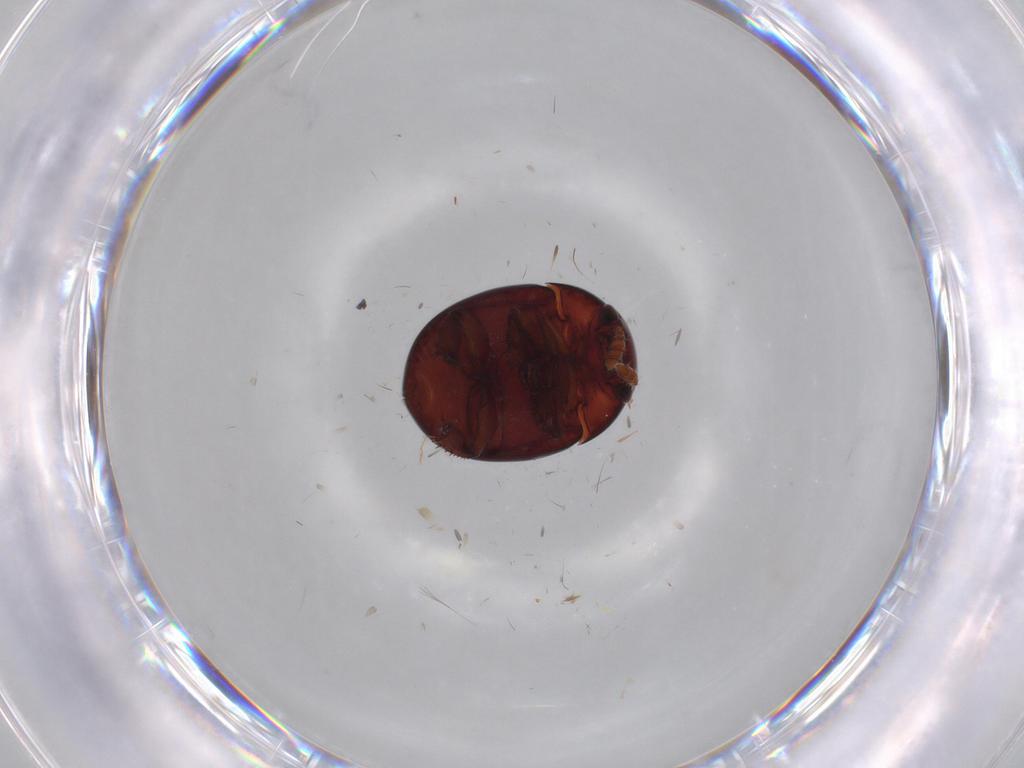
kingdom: Animalia
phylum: Arthropoda
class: Insecta
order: Coleoptera
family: Leiodidae
